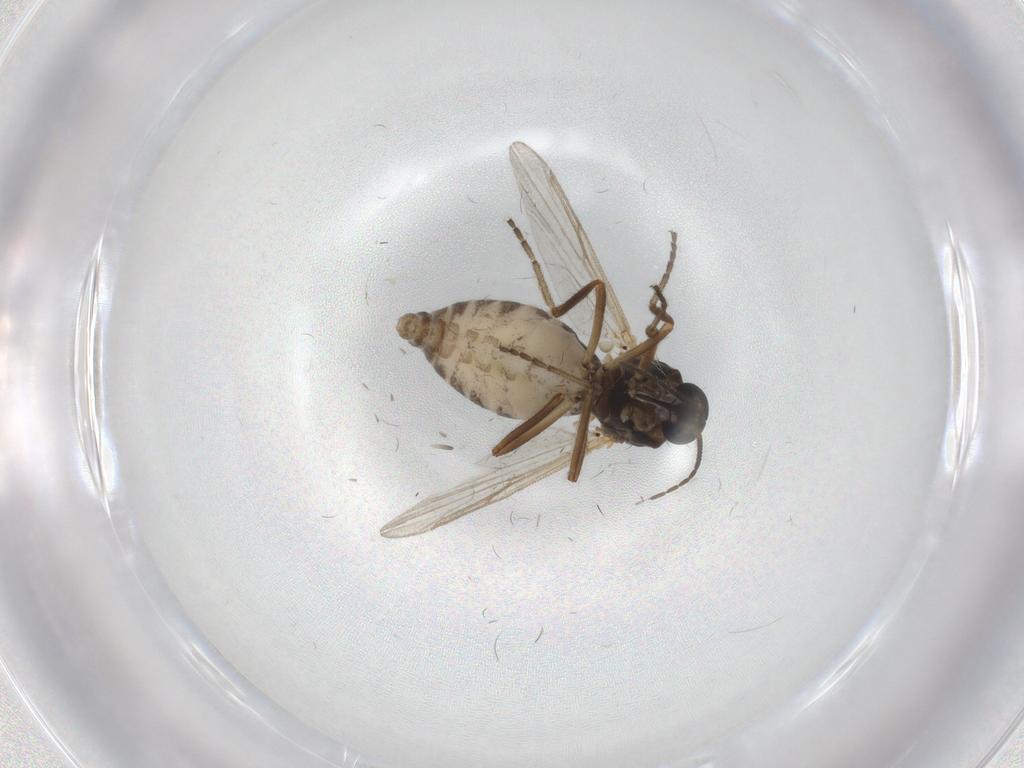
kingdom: Animalia
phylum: Arthropoda
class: Insecta
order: Diptera
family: Ceratopogonidae
